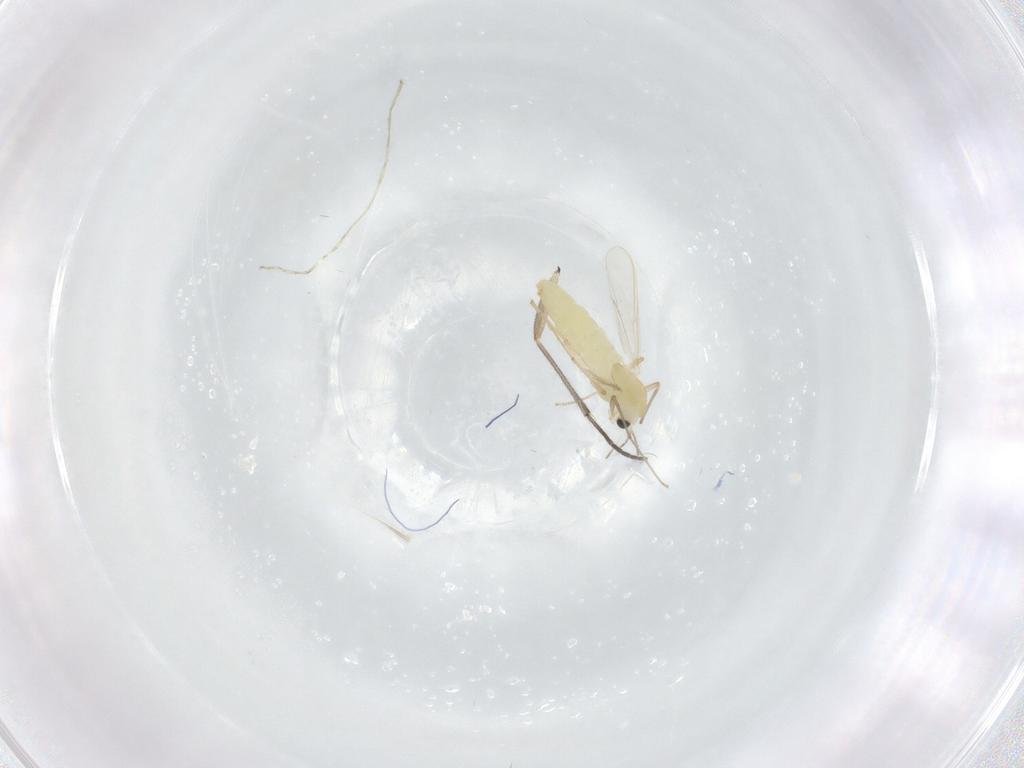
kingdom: Animalia
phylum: Arthropoda
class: Insecta
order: Diptera
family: Chironomidae
